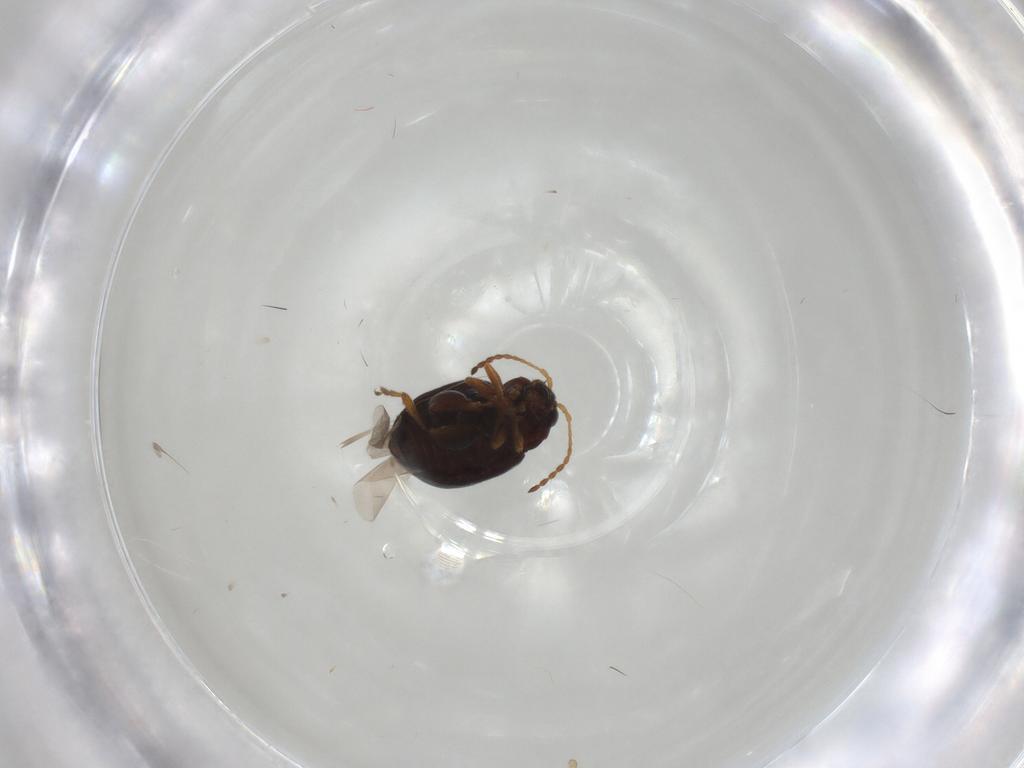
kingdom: Animalia
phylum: Arthropoda
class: Insecta
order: Coleoptera
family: Chrysomelidae
